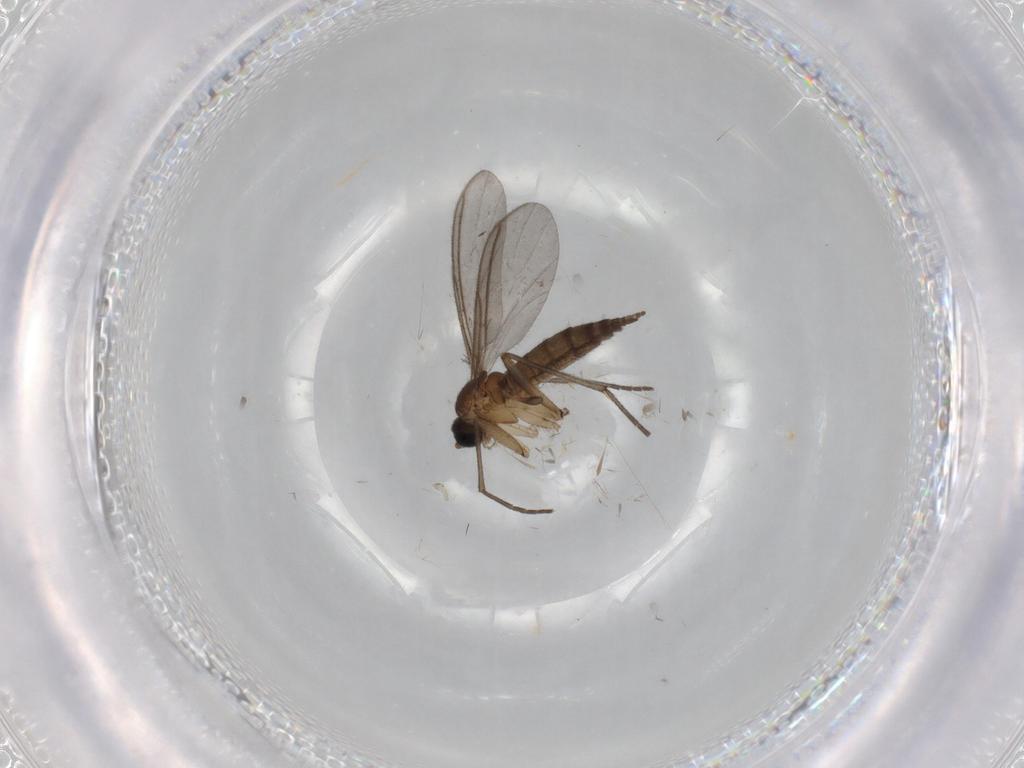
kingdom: Animalia
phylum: Arthropoda
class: Insecta
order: Diptera
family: Sciaridae
